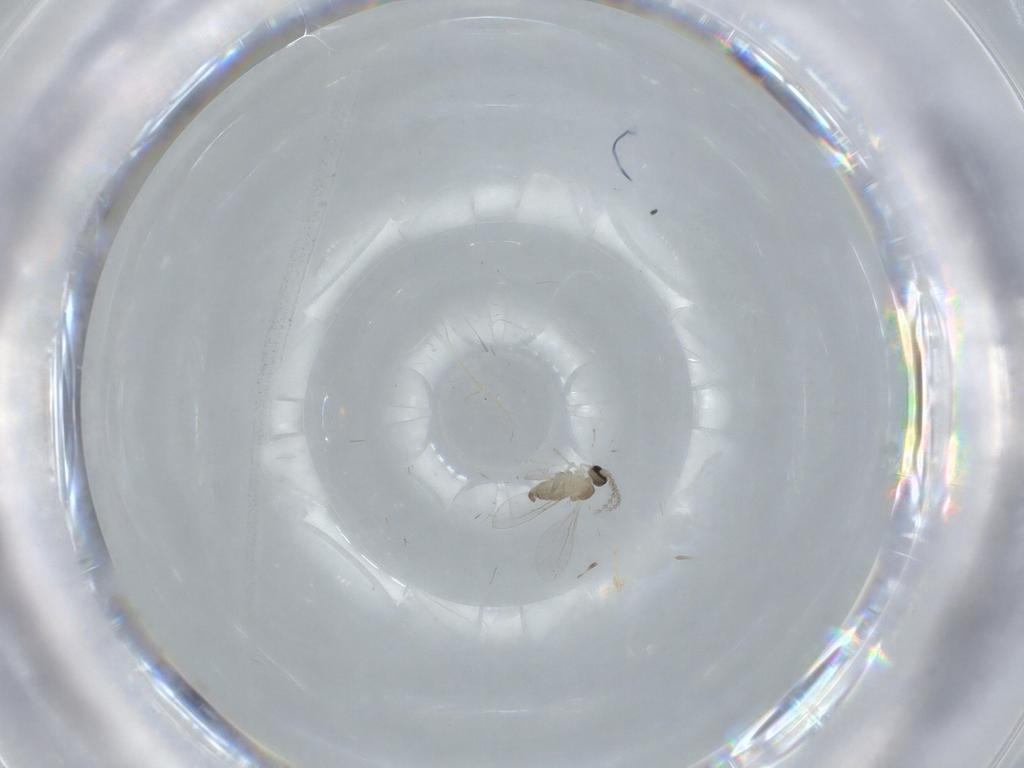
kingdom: Animalia
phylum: Arthropoda
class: Insecta
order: Diptera
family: Cecidomyiidae
